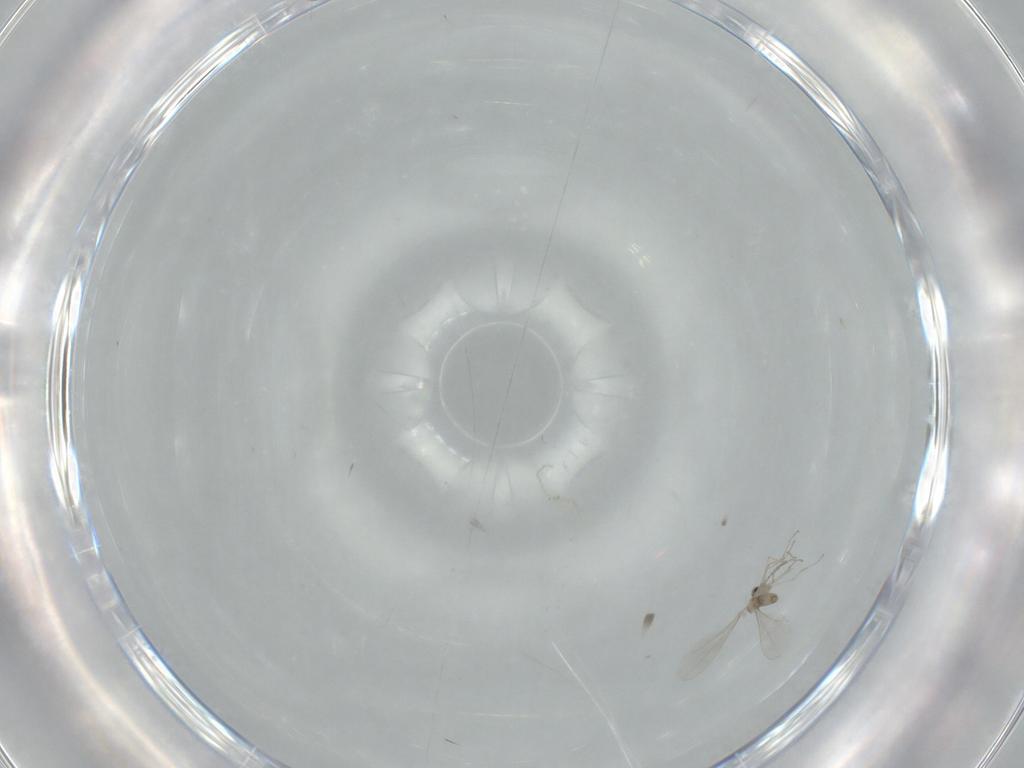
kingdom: Animalia
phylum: Arthropoda
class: Insecta
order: Diptera
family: Cecidomyiidae
